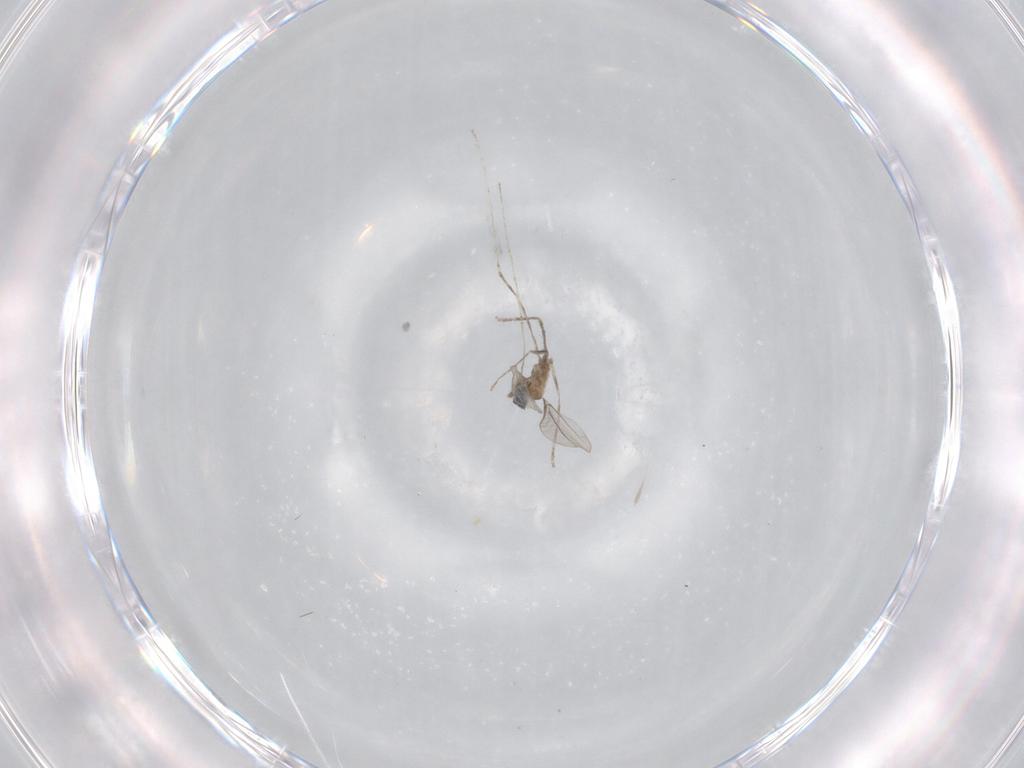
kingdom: Animalia
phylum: Arthropoda
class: Insecta
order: Diptera
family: Cecidomyiidae
